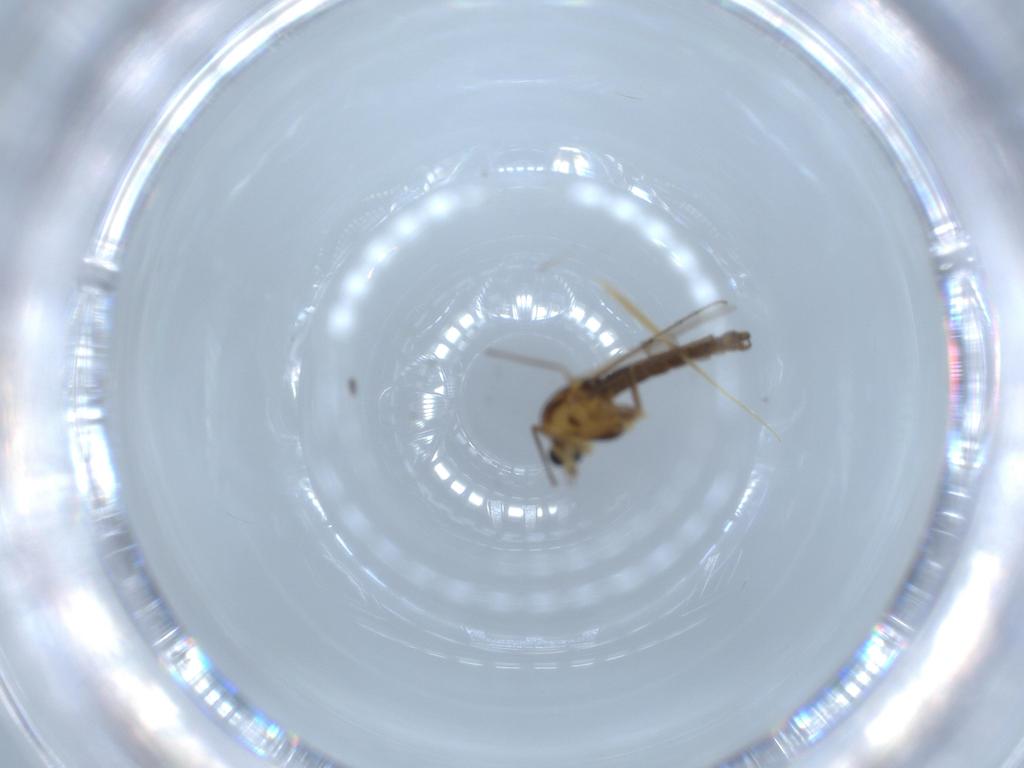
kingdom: Animalia
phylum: Arthropoda
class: Insecta
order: Diptera
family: Chironomidae
